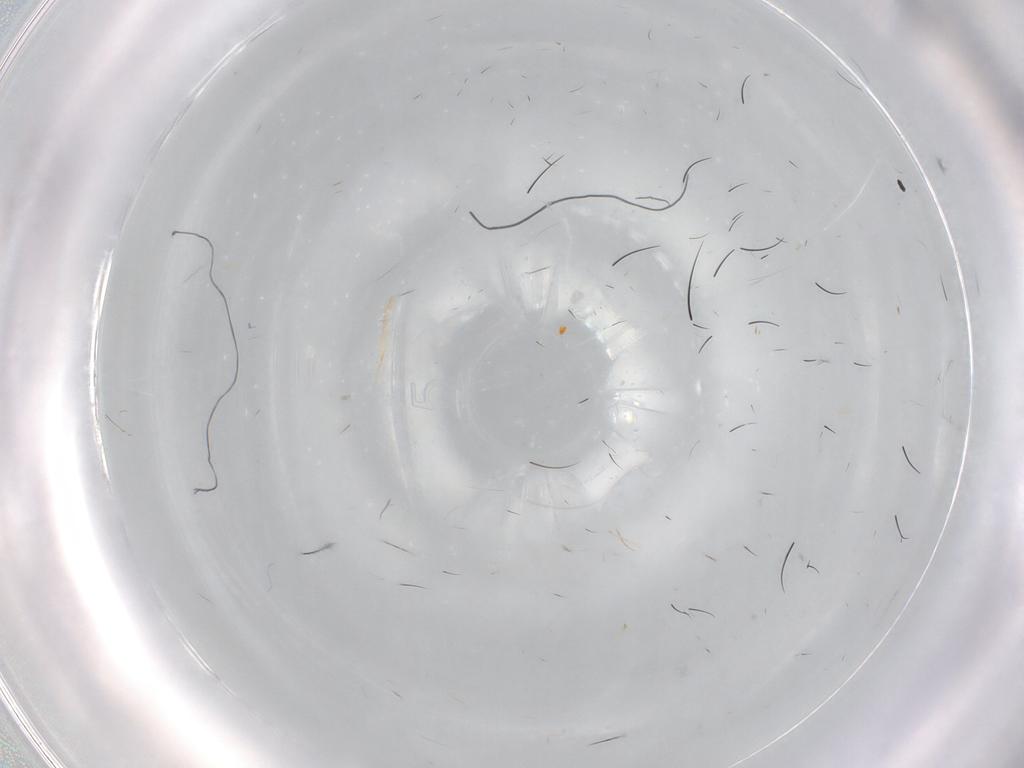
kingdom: Animalia
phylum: Arthropoda
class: Insecta
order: Coleoptera
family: Anthribidae
